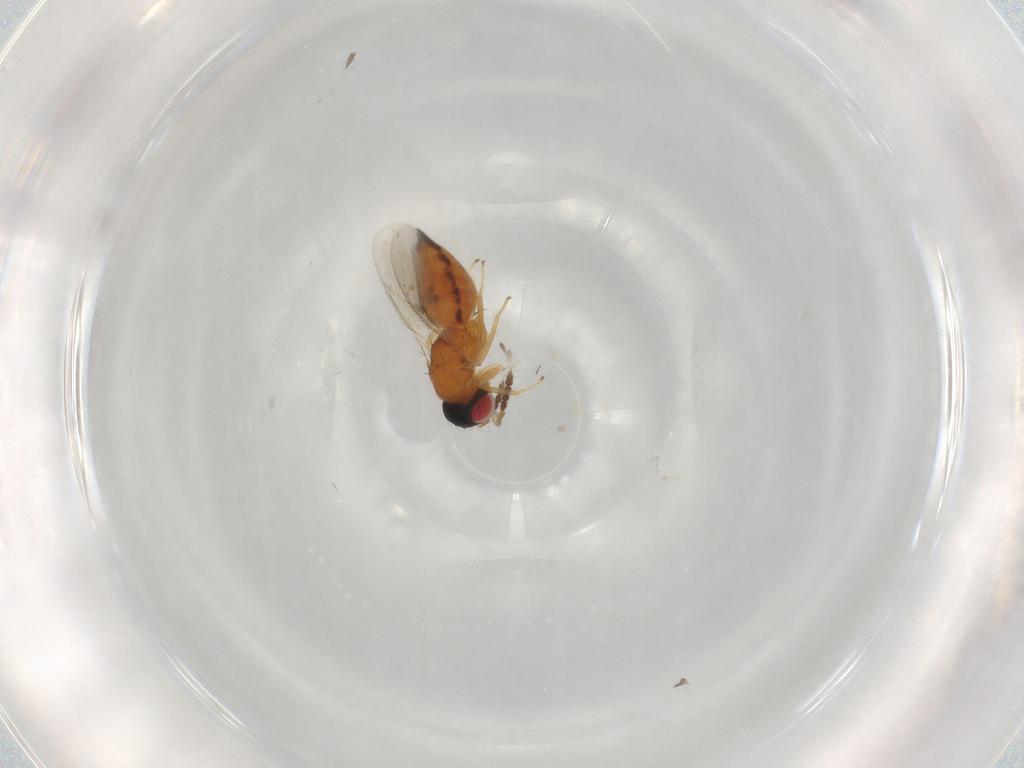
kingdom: Animalia
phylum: Arthropoda
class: Insecta
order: Hymenoptera
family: Eulophidae
